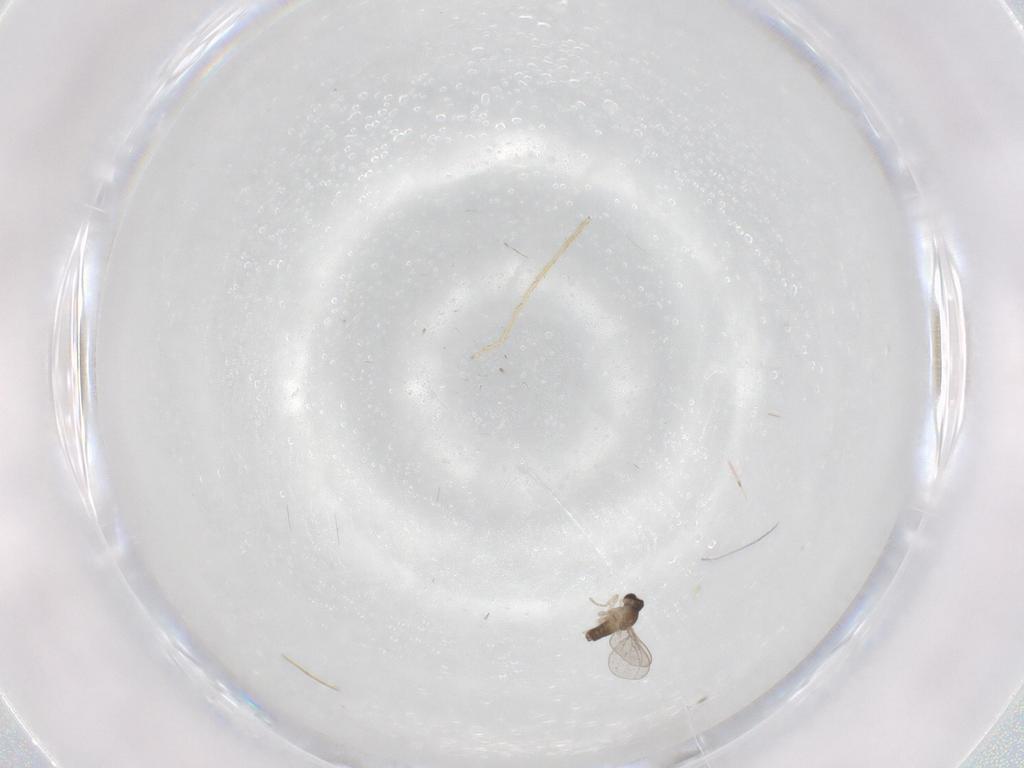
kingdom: Animalia
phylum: Arthropoda
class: Insecta
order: Diptera
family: Chironomidae
